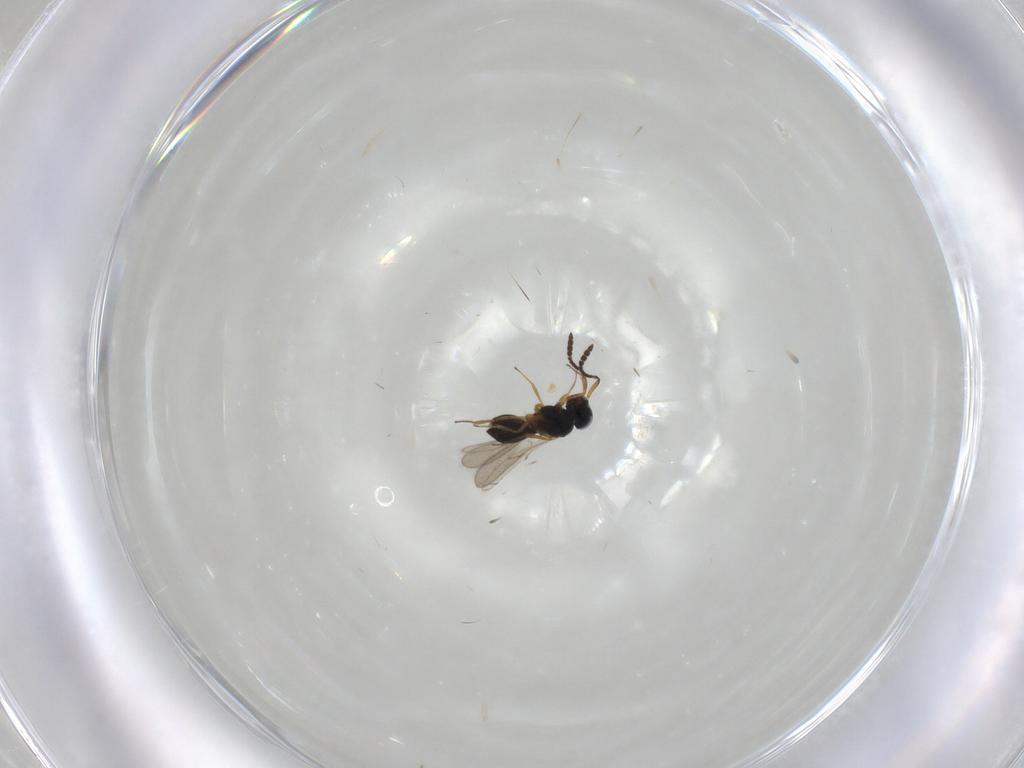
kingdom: Animalia
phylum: Arthropoda
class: Insecta
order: Hymenoptera
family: Scelionidae
